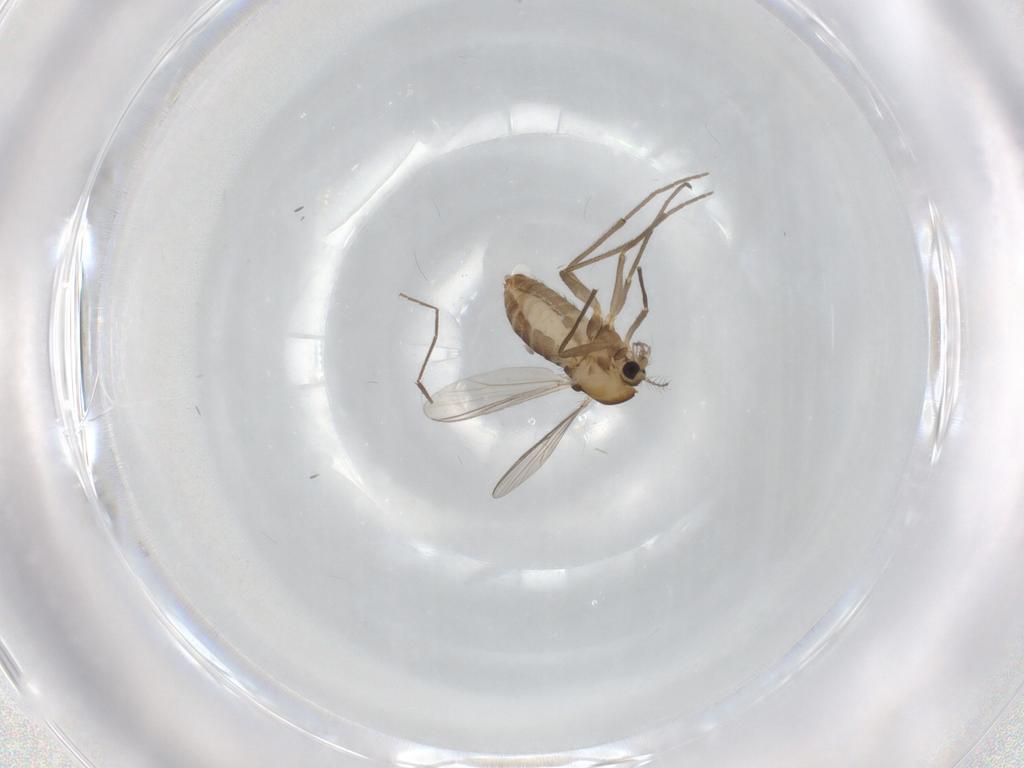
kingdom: Animalia
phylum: Arthropoda
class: Insecta
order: Diptera
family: Chironomidae
